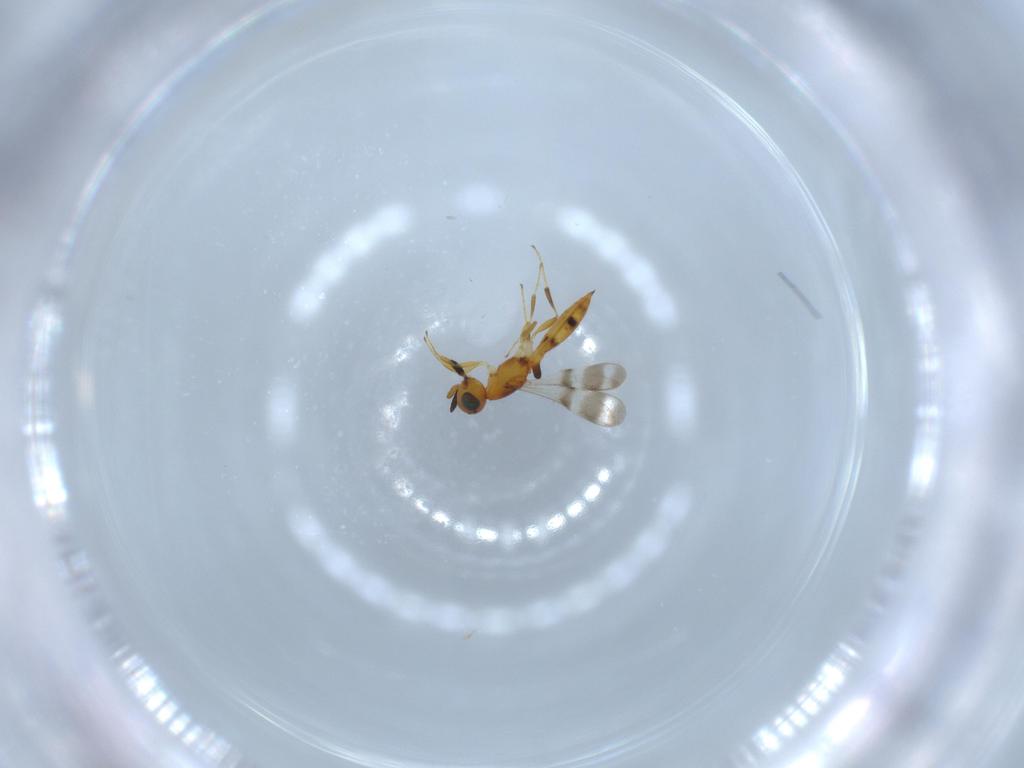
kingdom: Animalia
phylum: Arthropoda
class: Insecta
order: Hymenoptera
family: Scelionidae
